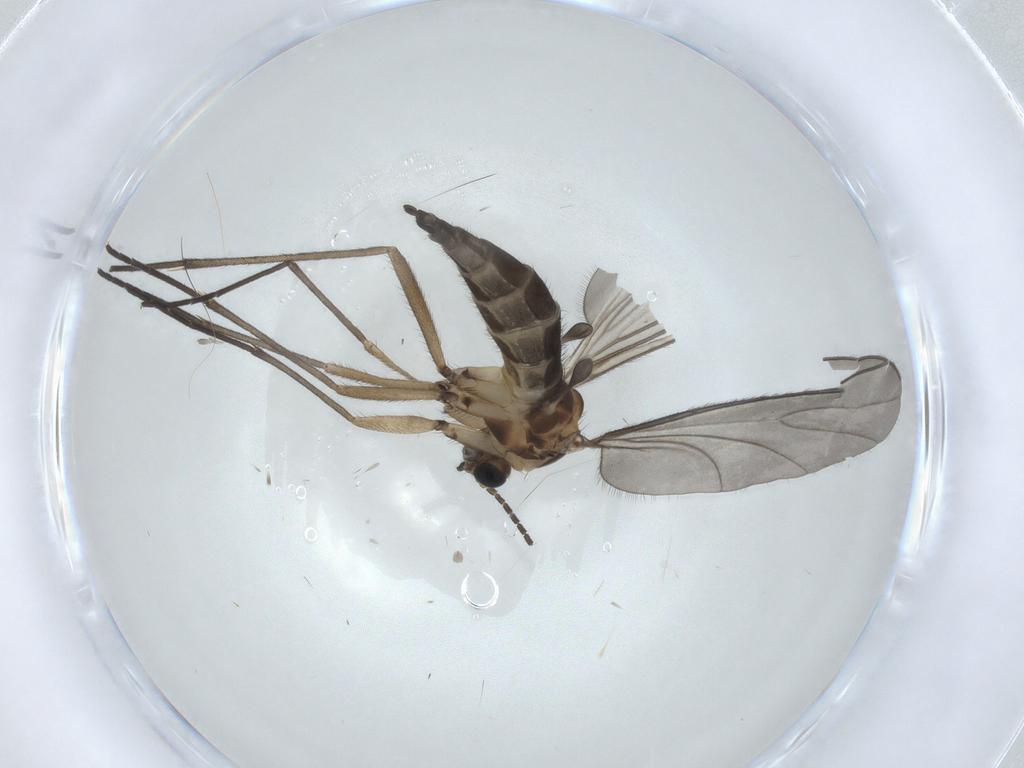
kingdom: Animalia
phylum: Arthropoda
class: Insecta
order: Diptera
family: Sciaridae
